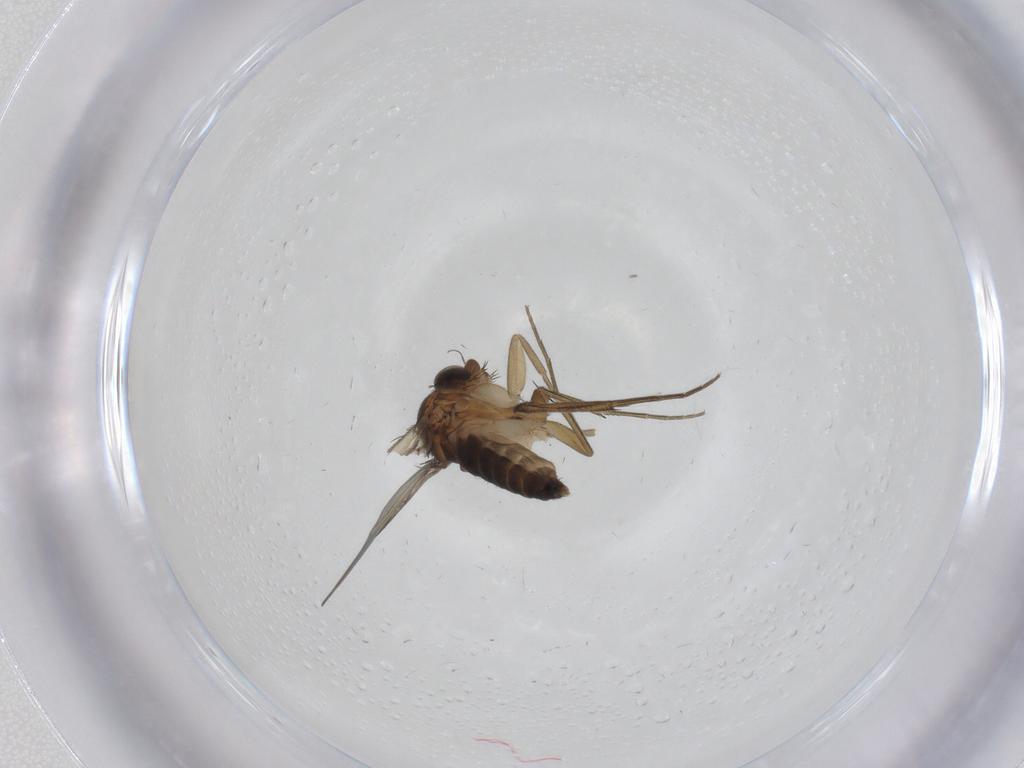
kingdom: Animalia
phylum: Arthropoda
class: Insecta
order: Diptera
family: Phoridae
